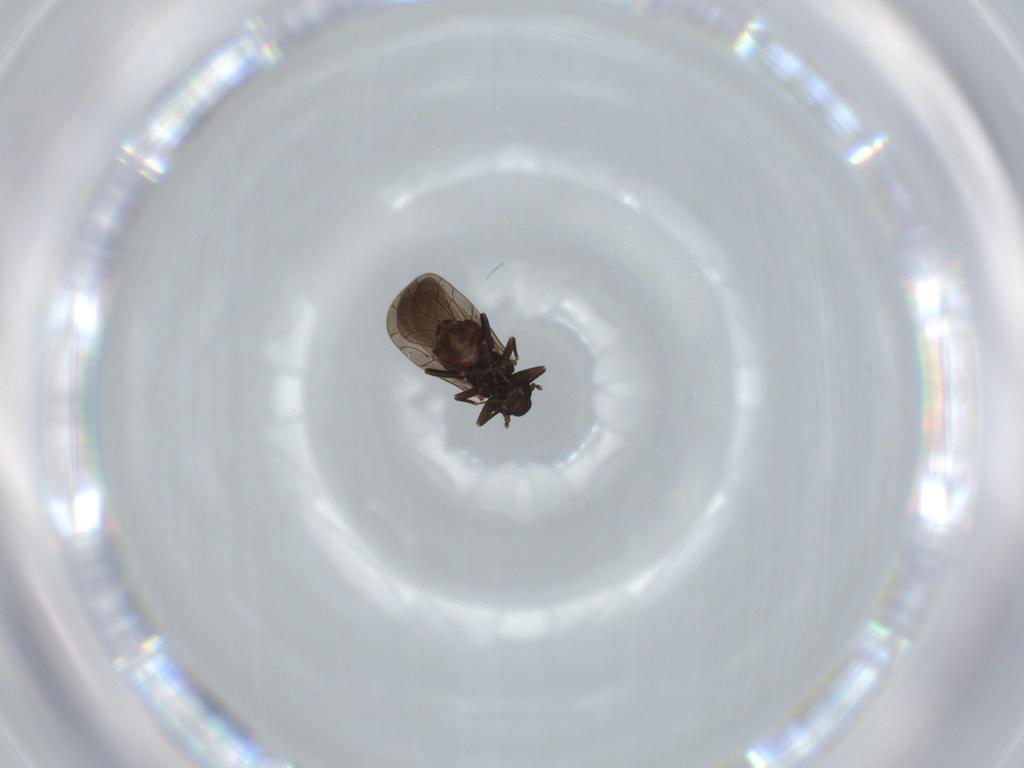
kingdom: Animalia
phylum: Arthropoda
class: Insecta
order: Psocodea
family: Lepidopsocidae
